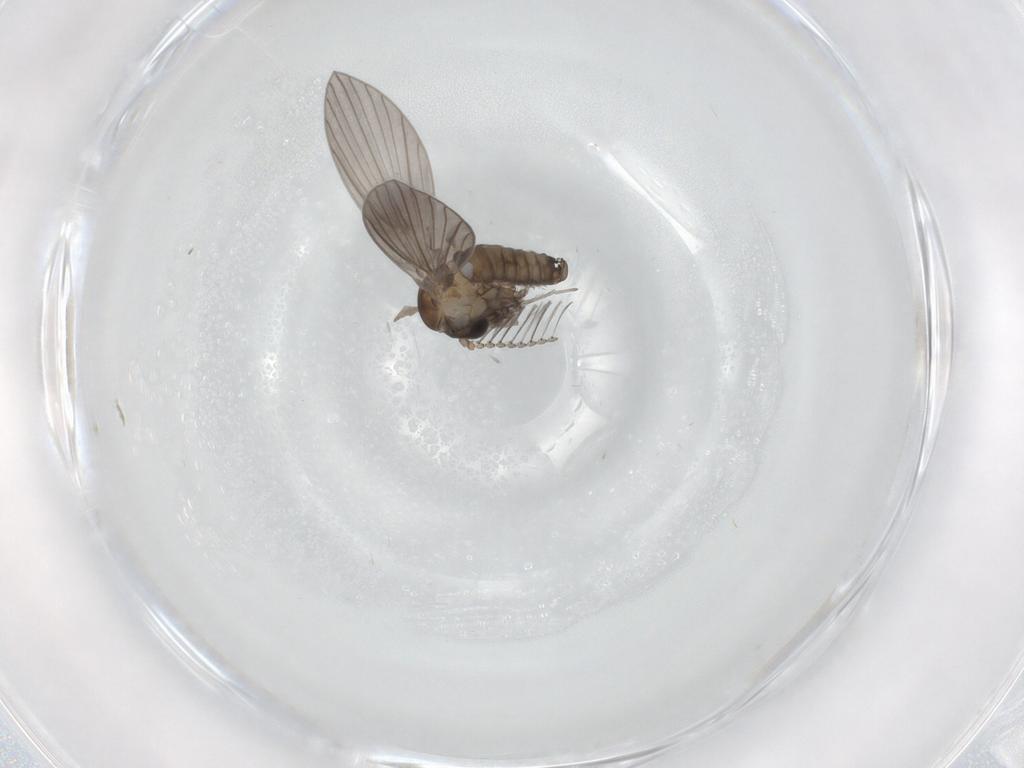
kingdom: Animalia
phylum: Arthropoda
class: Insecta
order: Diptera
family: Psychodidae
